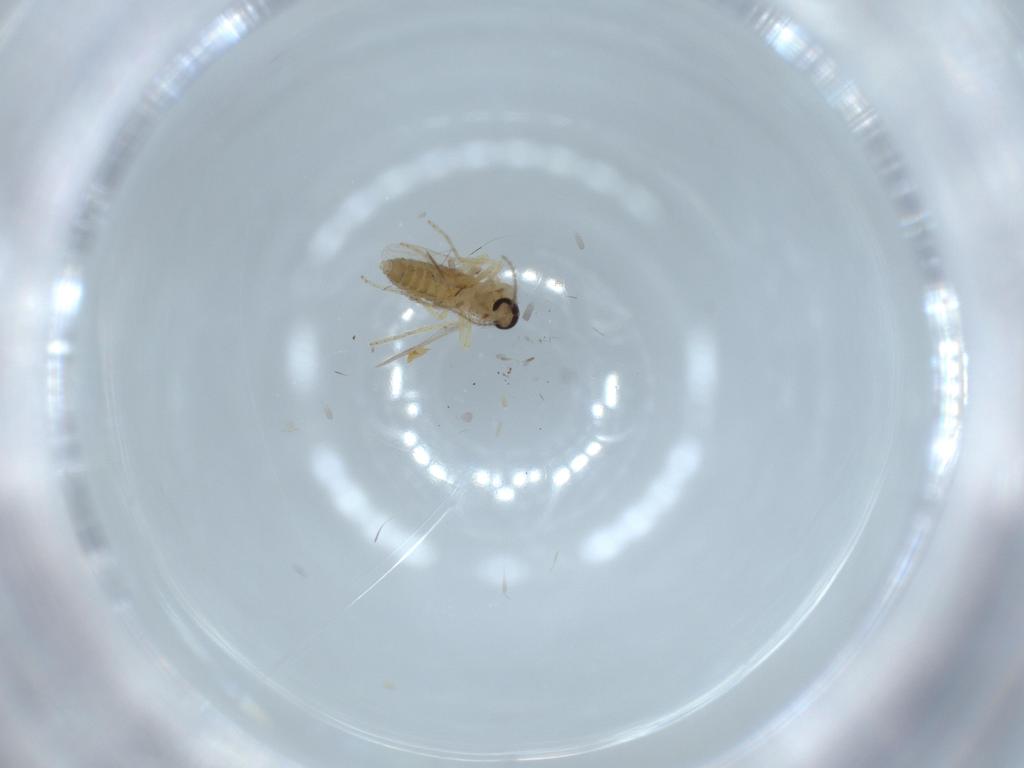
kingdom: Animalia
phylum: Arthropoda
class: Insecta
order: Diptera
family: Ceratopogonidae
